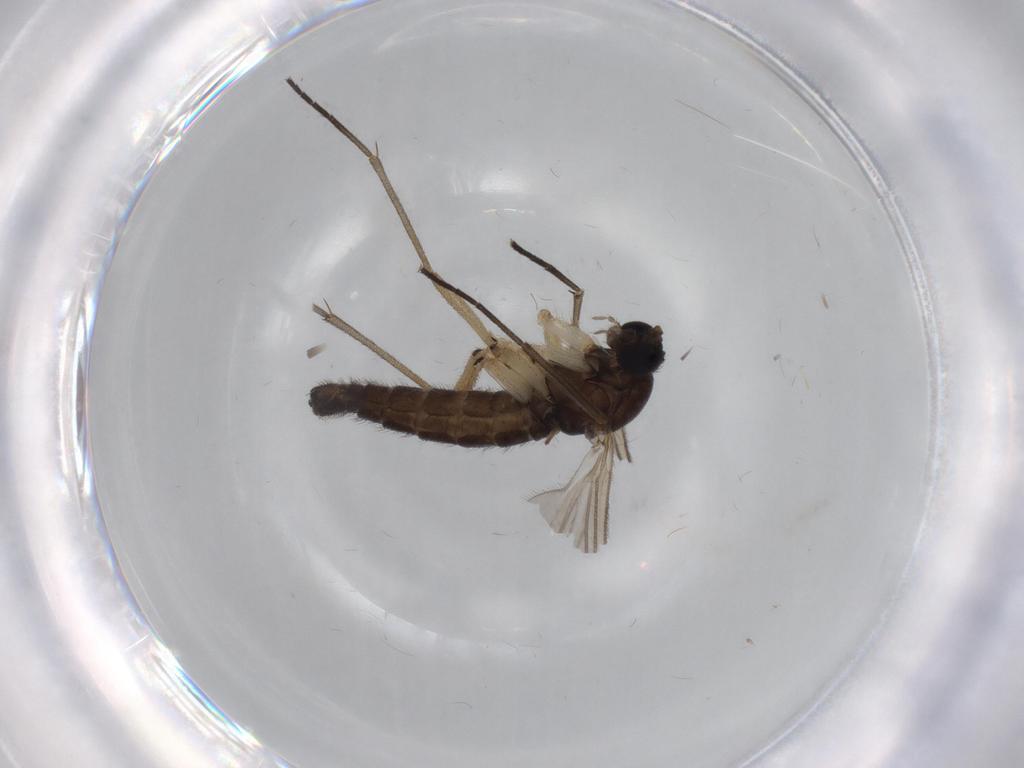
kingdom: Animalia
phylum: Arthropoda
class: Insecta
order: Diptera
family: Sciaridae
